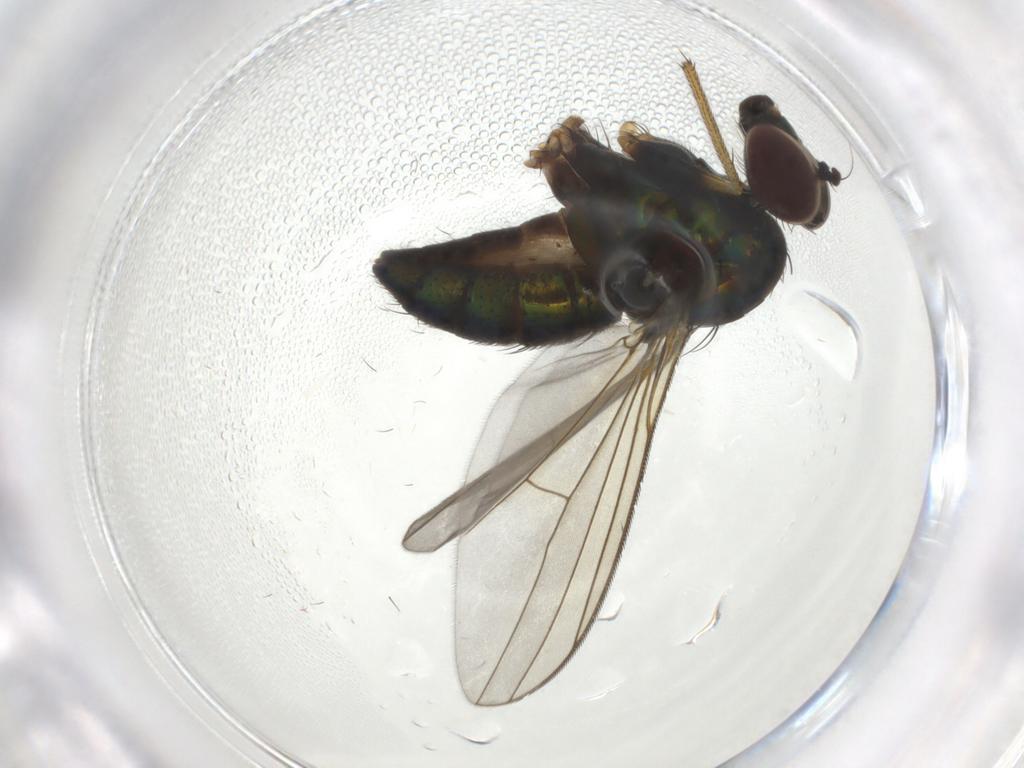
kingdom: Animalia
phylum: Arthropoda
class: Insecta
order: Diptera
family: Dolichopodidae
